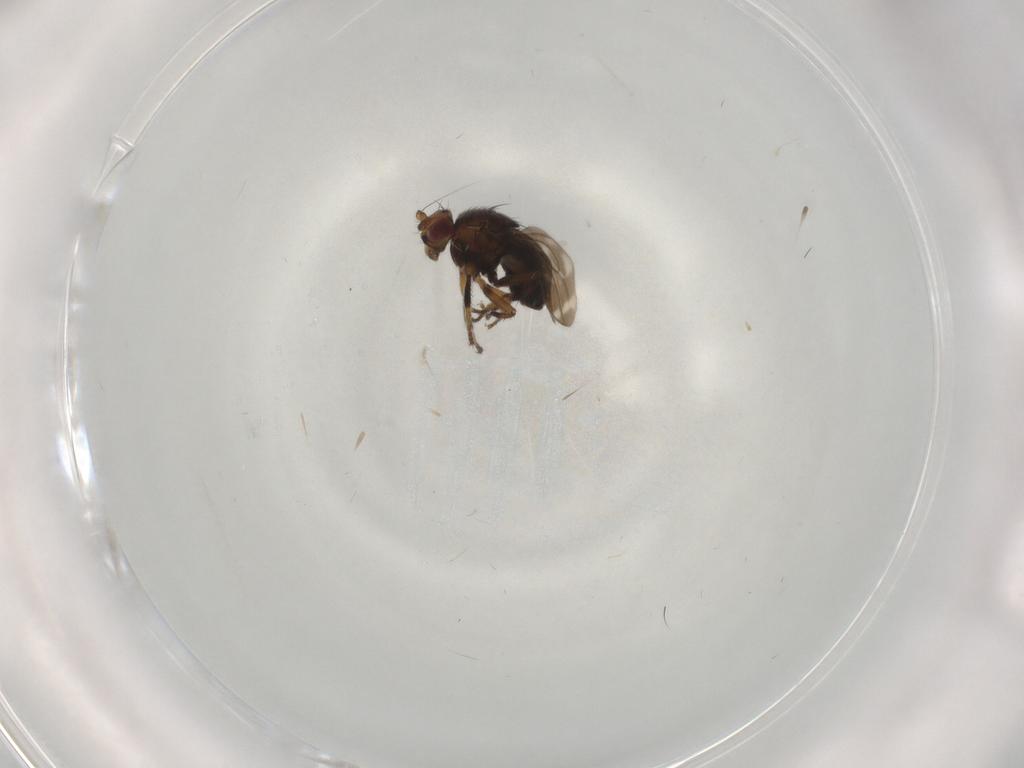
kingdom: Animalia
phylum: Arthropoda
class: Insecta
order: Diptera
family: Sphaeroceridae
